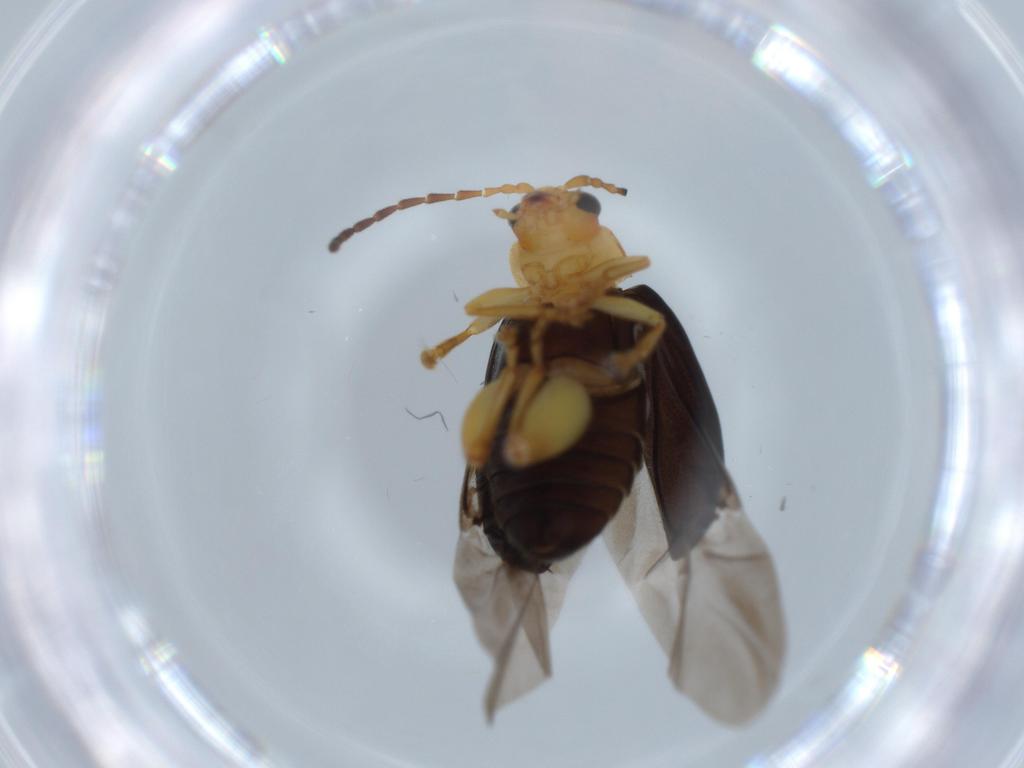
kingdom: Animalia
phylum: Arthropoda
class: Insecta
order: Coleoptera
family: Chrysomelidae
